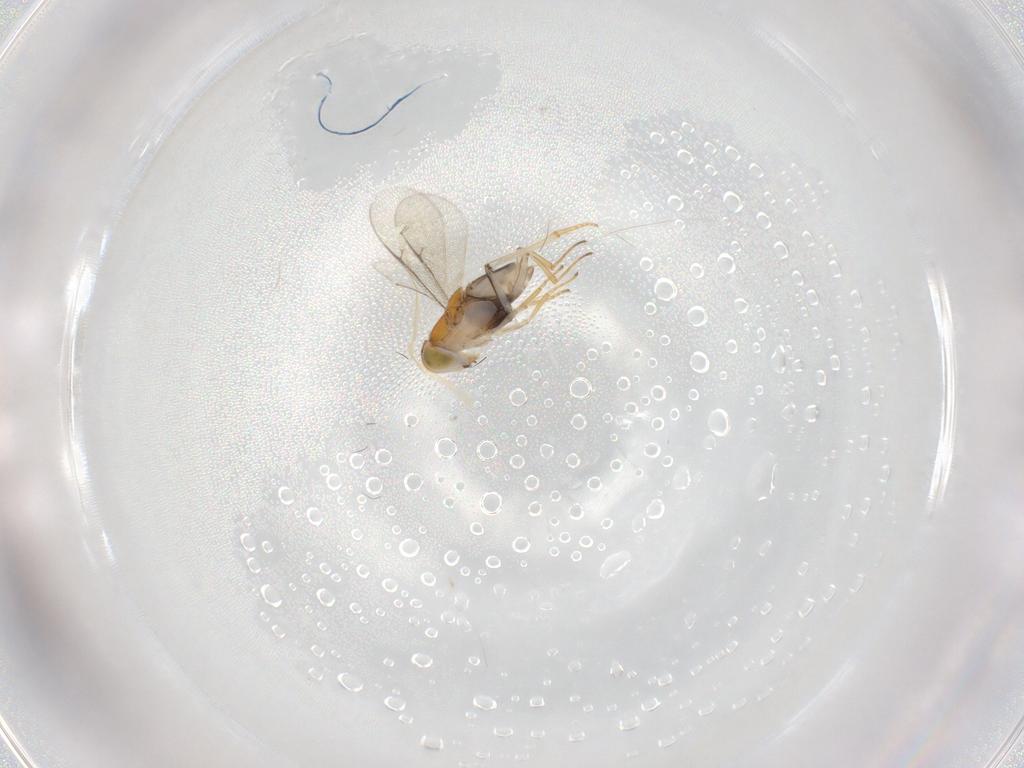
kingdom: Animalia
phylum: Arthropoda
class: Insecta
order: Hymenoptera
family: Encyrtidae
